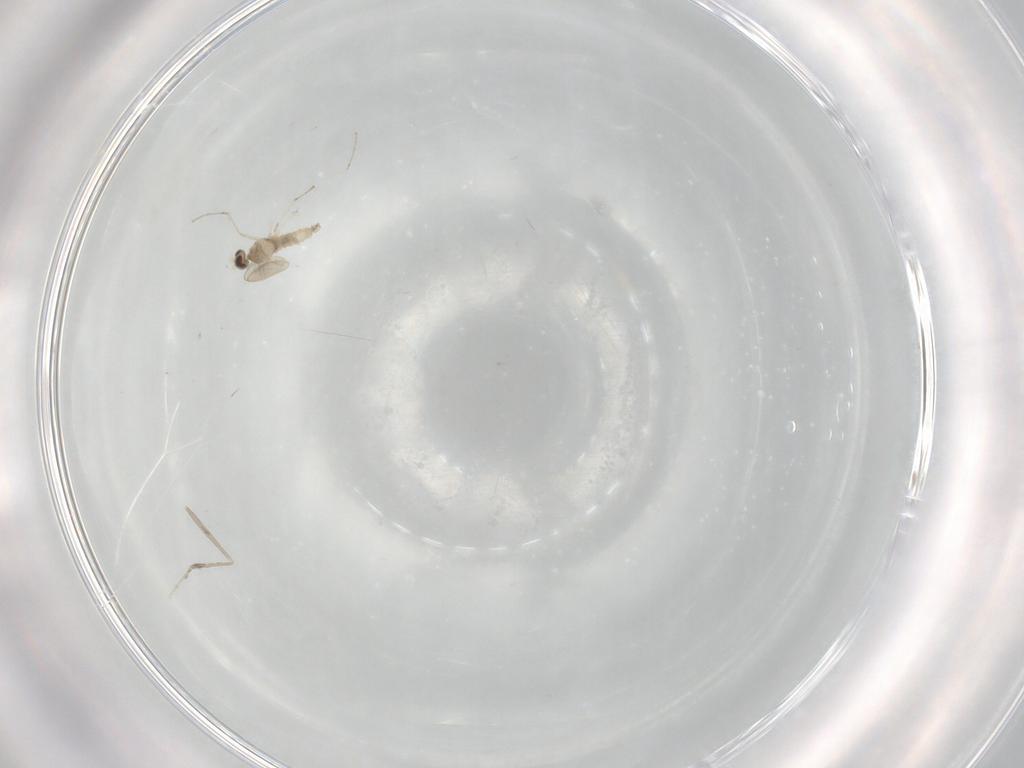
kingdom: Animalia
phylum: Arthropoda
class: Insecta
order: Diptera
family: Cecidomyiidae
